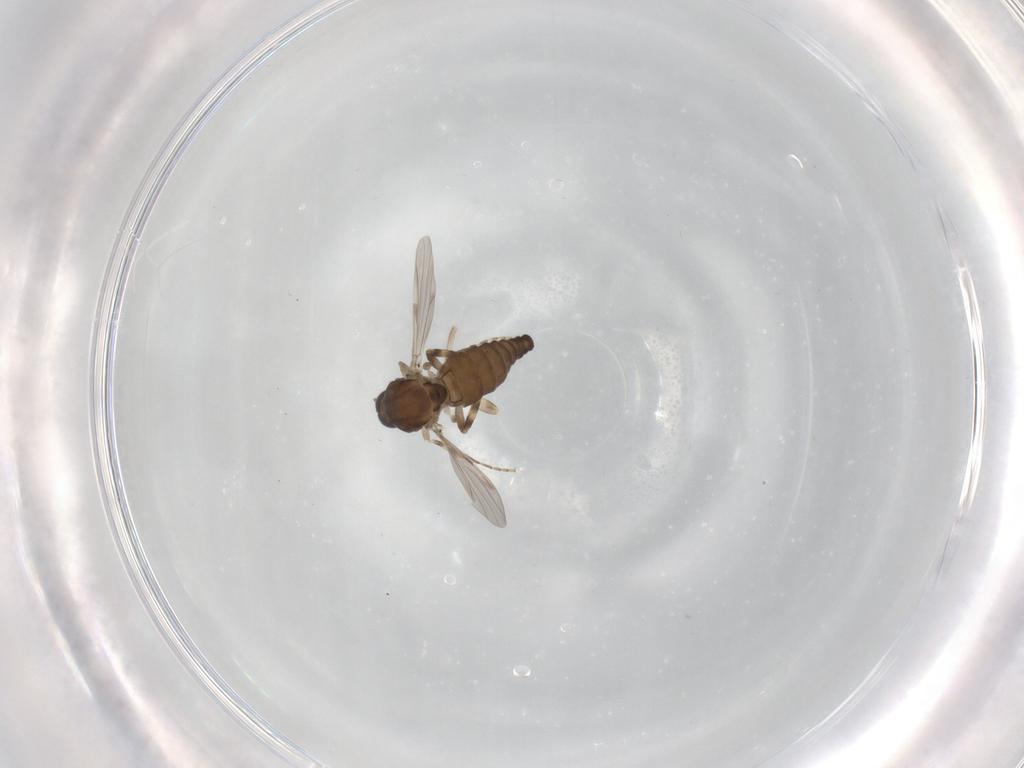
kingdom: Animalia
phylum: Arthropoda
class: Insecta
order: Diptera
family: Ceratopogonidae
